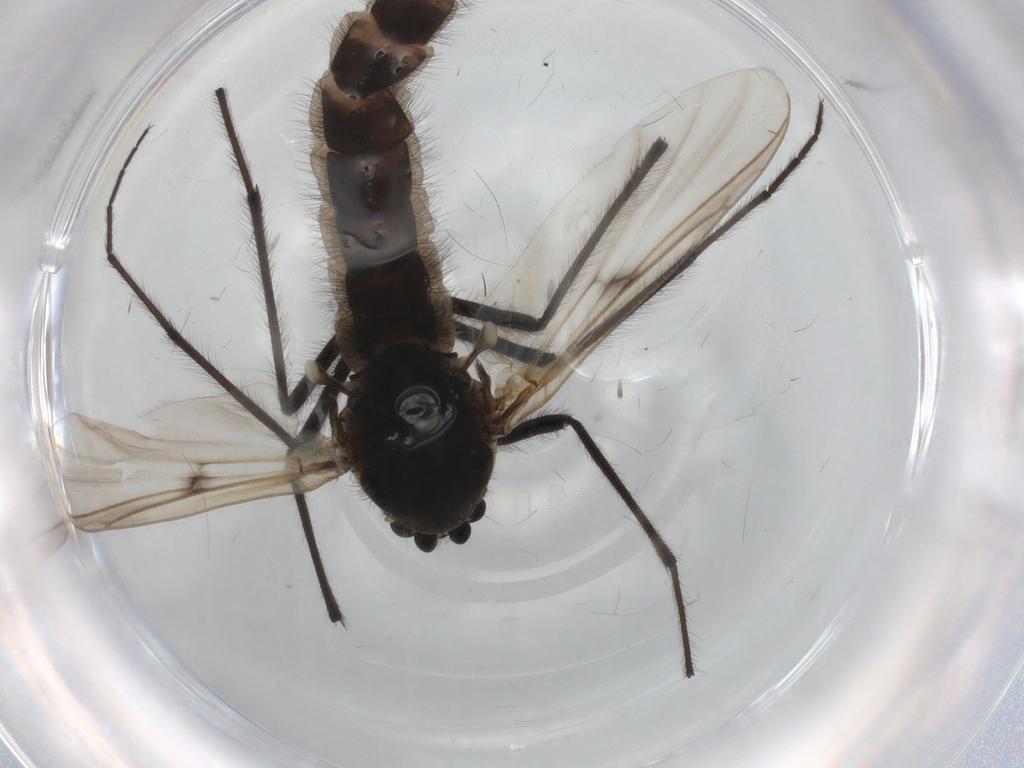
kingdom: Animalia
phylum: Arthropoda
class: Insecta
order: Diptera
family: Chironomidae
